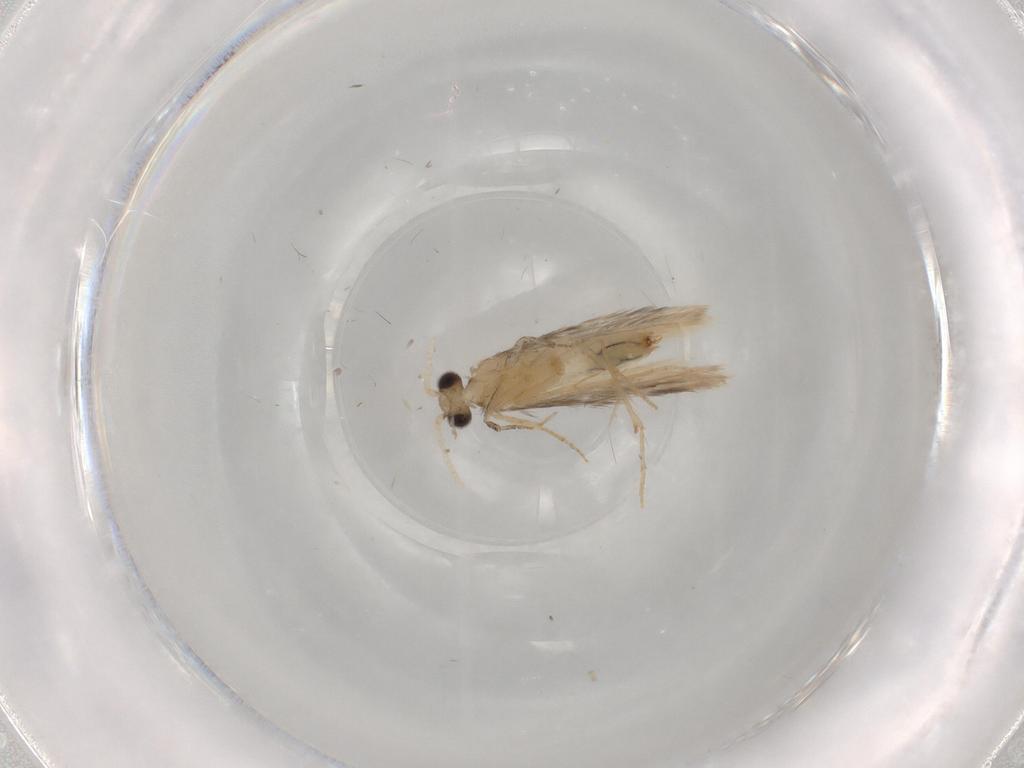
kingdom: Animalia
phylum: Arthropoda
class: Insecta
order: Trichoptera
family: Hydroptilidae
